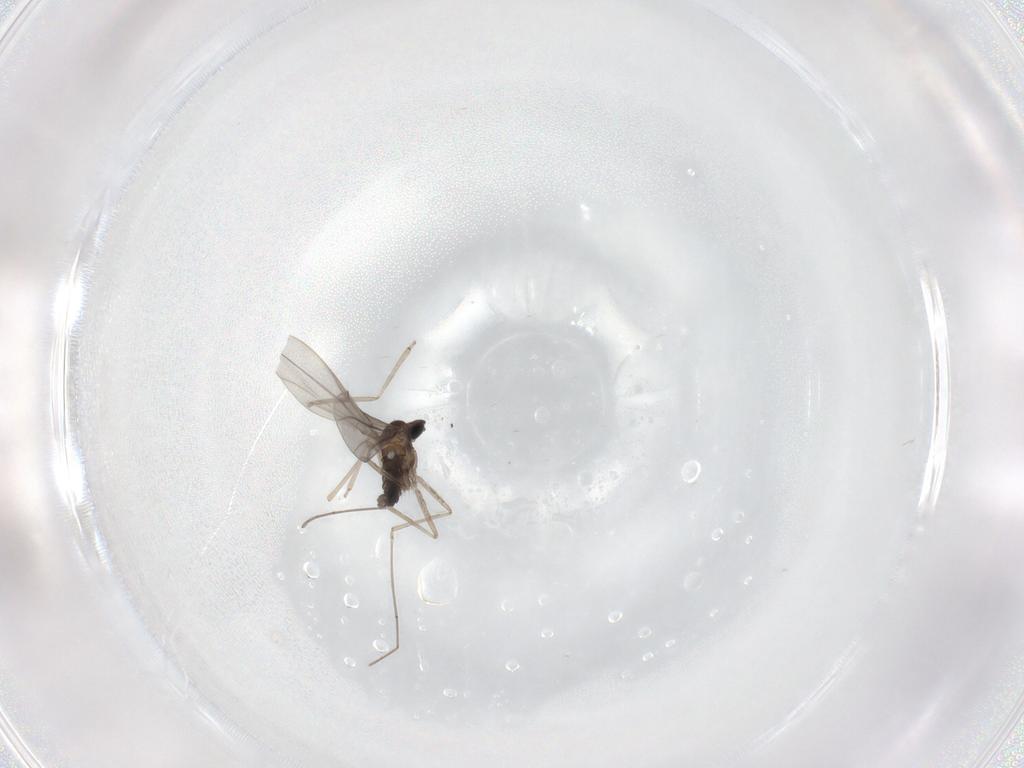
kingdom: Animalia
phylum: Arthropoda
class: Insecta
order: Diptera
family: Cecidomyiidae
